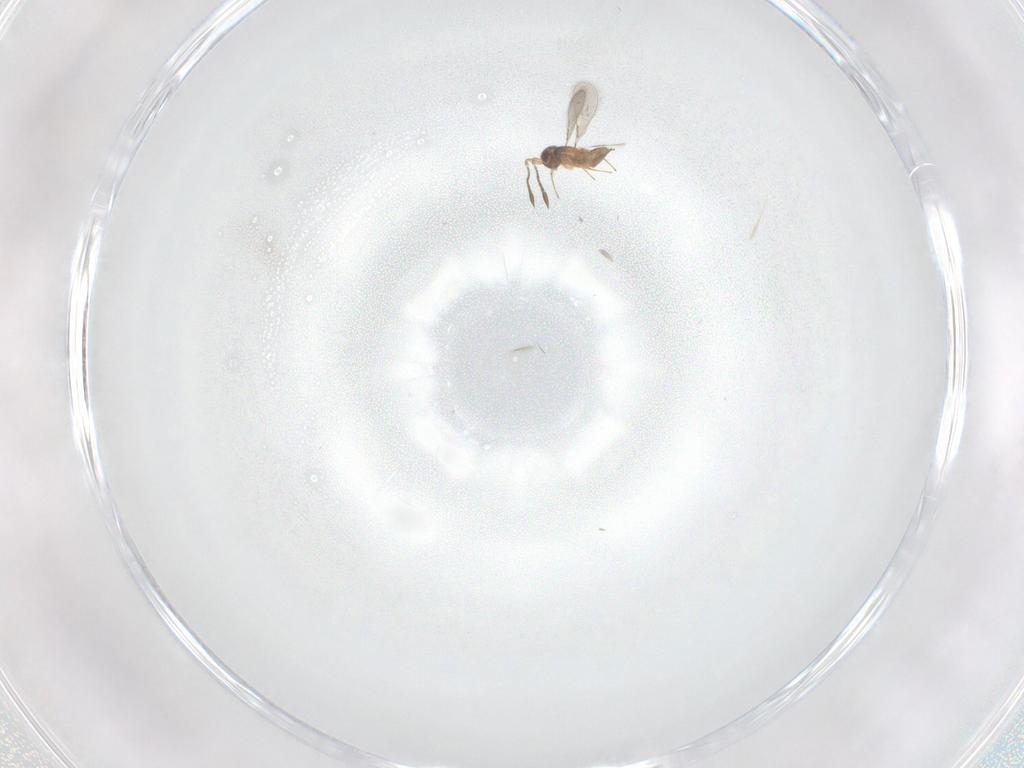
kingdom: Animalia
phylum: Arthropoda
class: Insecta
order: Hymenoptera
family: Mymaridae
